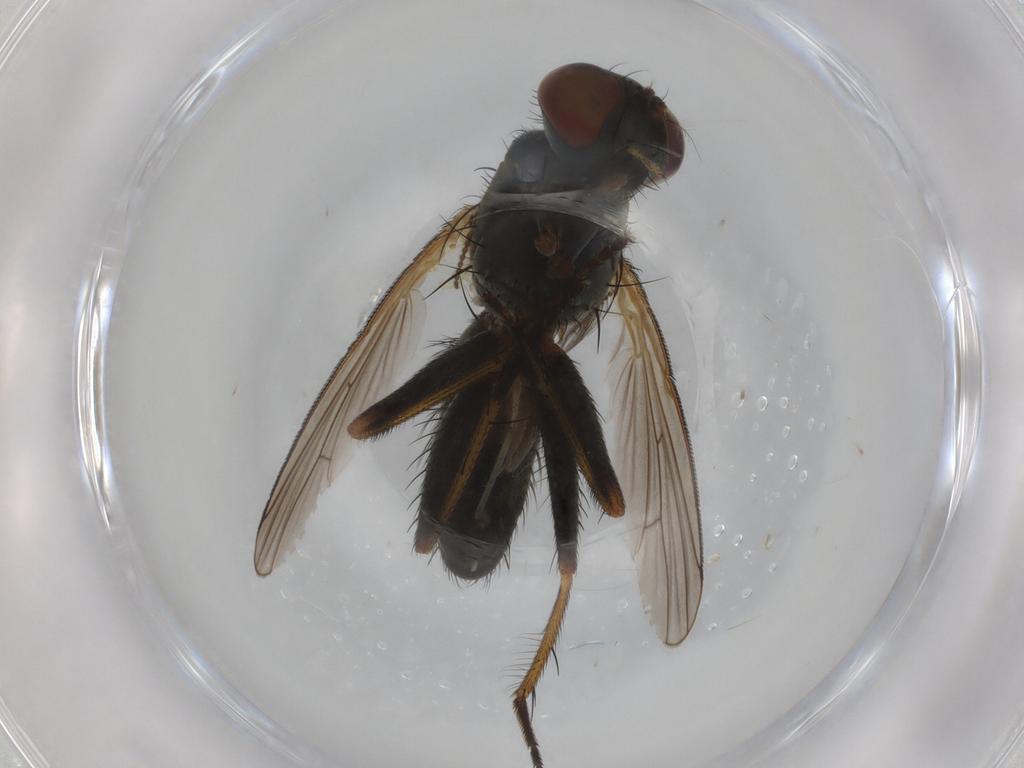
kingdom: Animalia
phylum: Arthropoda
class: Insecta
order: Diptera
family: Muscidae
